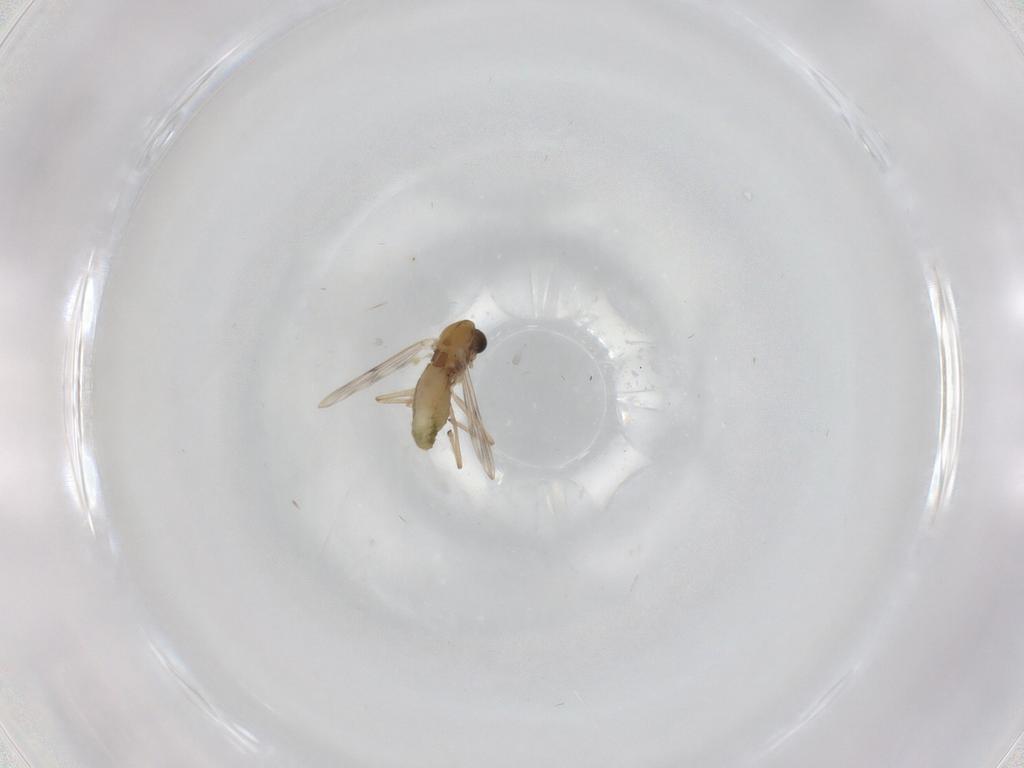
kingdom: Animalia
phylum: Arthropoda
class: Insecta
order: Diptera
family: Chironomidae
